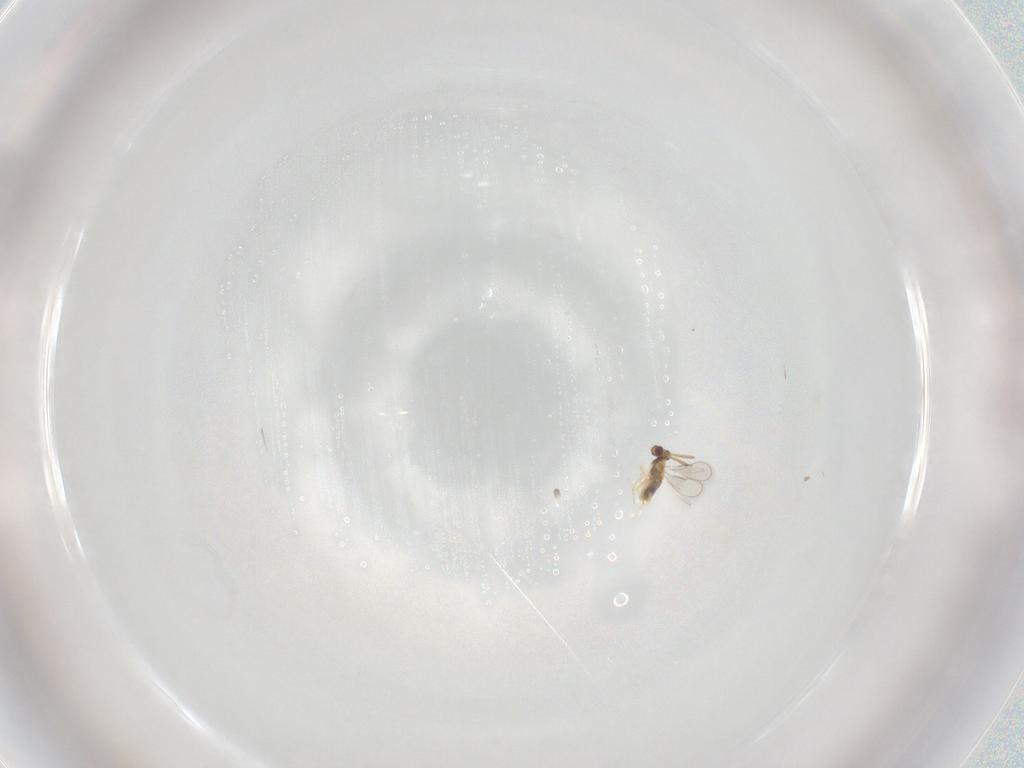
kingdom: Animalia
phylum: Arthropoda
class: Insecta
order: Hymenoptera
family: Aphelinidae
